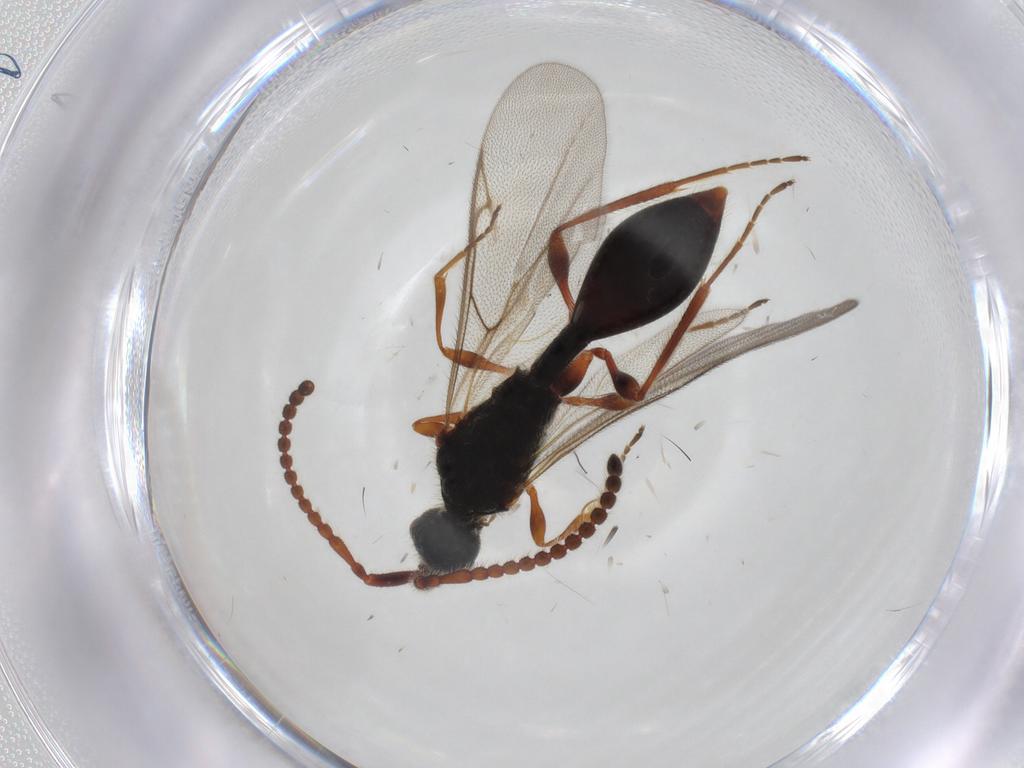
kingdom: Animalia
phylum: Arthropoda
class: Insecta
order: Hymenoptera
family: Diapriidae
